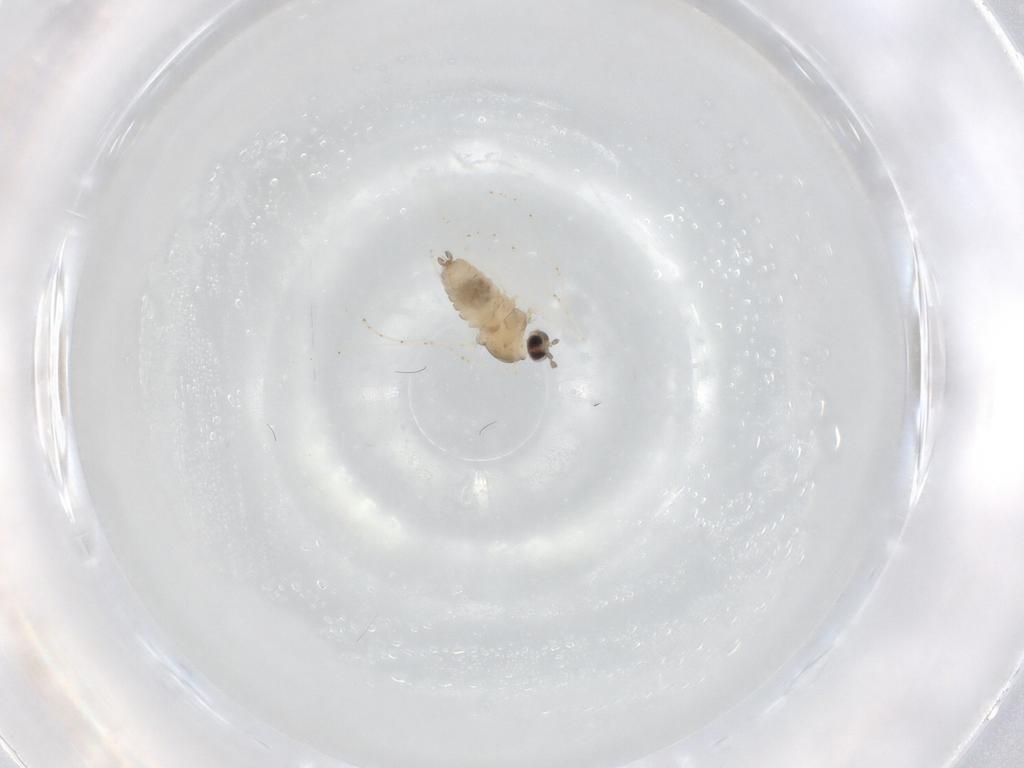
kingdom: Animalia
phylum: Arthropoda
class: Insecta
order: Diptera
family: Cecidomyiidae
